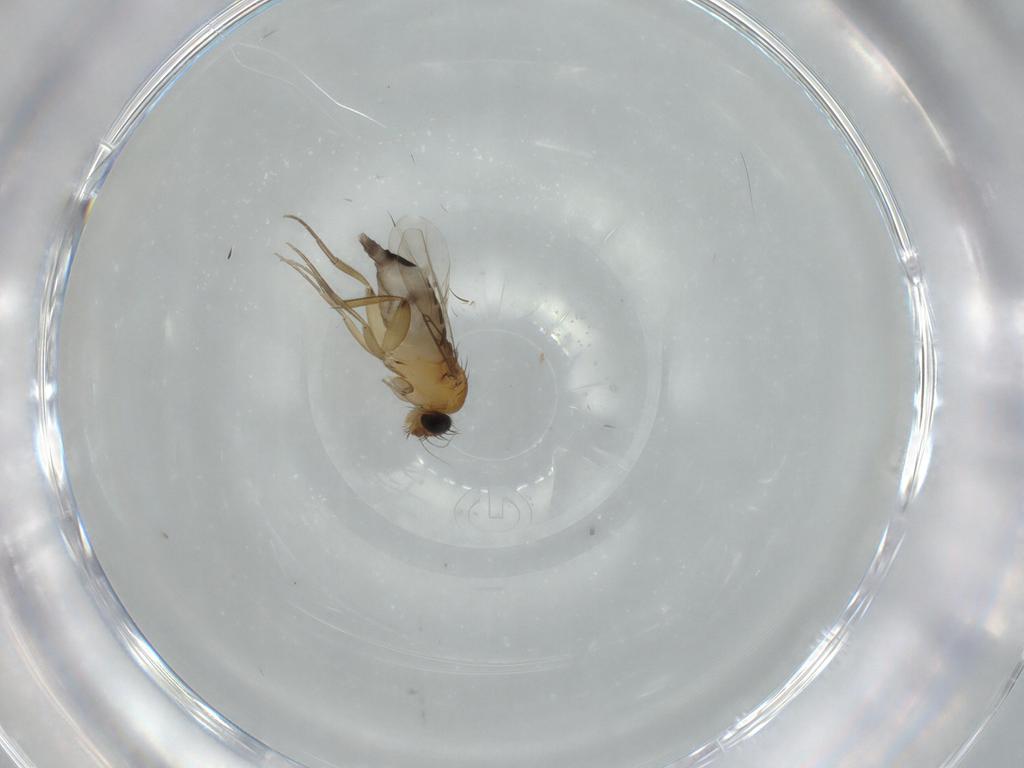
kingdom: Animalia
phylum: Arthropoda
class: Insecta
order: Diptera
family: Phoridae
